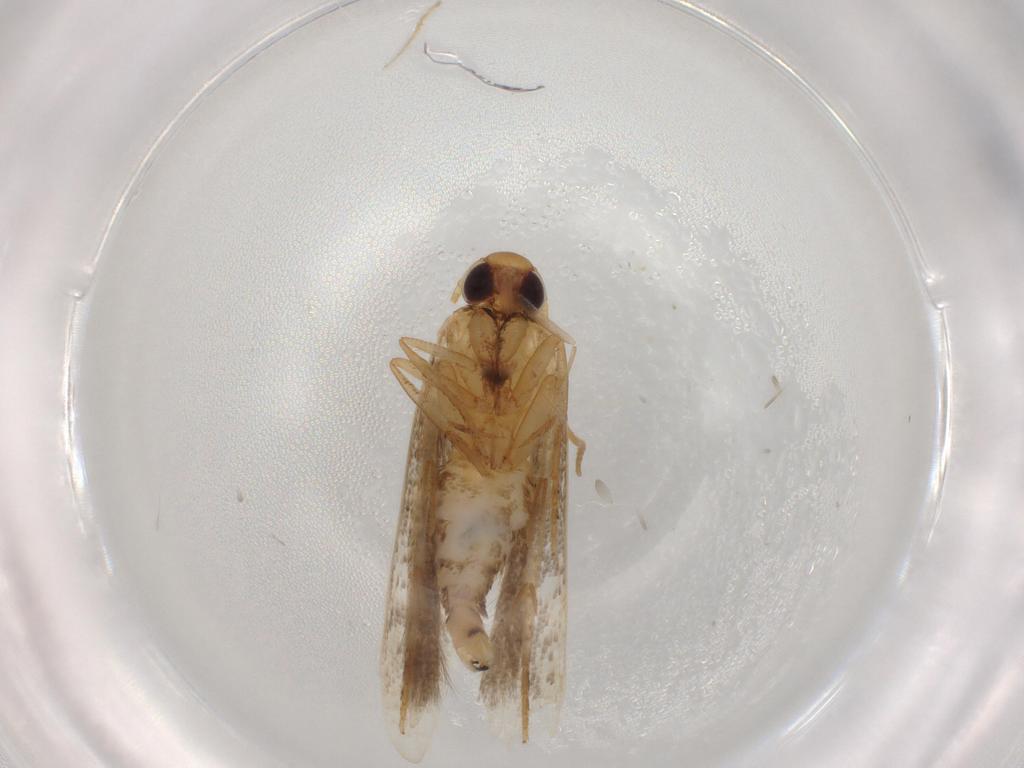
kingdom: Animalia
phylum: Arthropoda
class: Insecta
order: Lepidoptera
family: Gelechiidae
